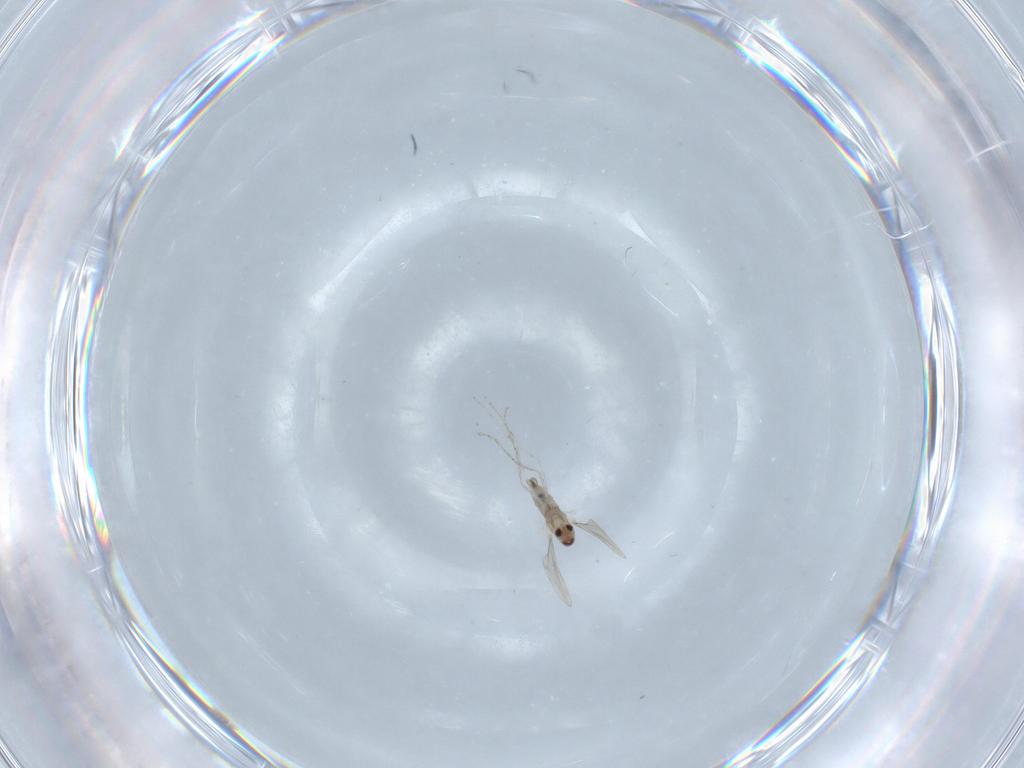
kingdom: Animalia
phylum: Arthropoda
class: Insecta
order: Diptera
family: Cecidomyiidae
